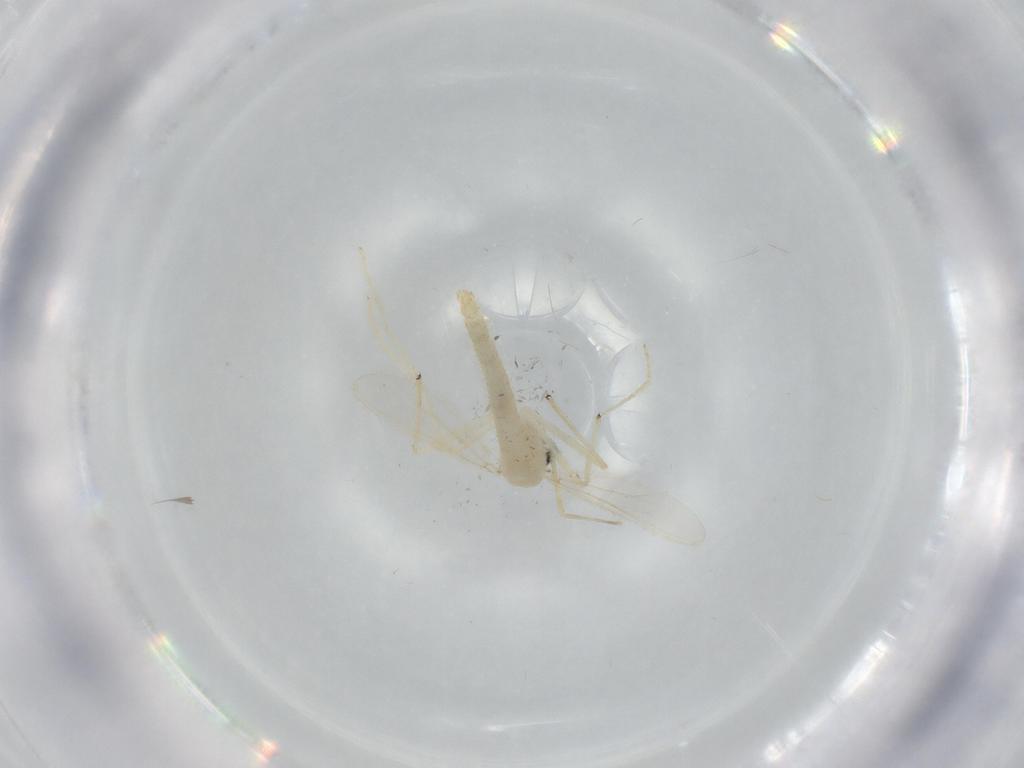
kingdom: Animalia
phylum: Arthropoda
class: Insecta
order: Diptera
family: Chironomidae
